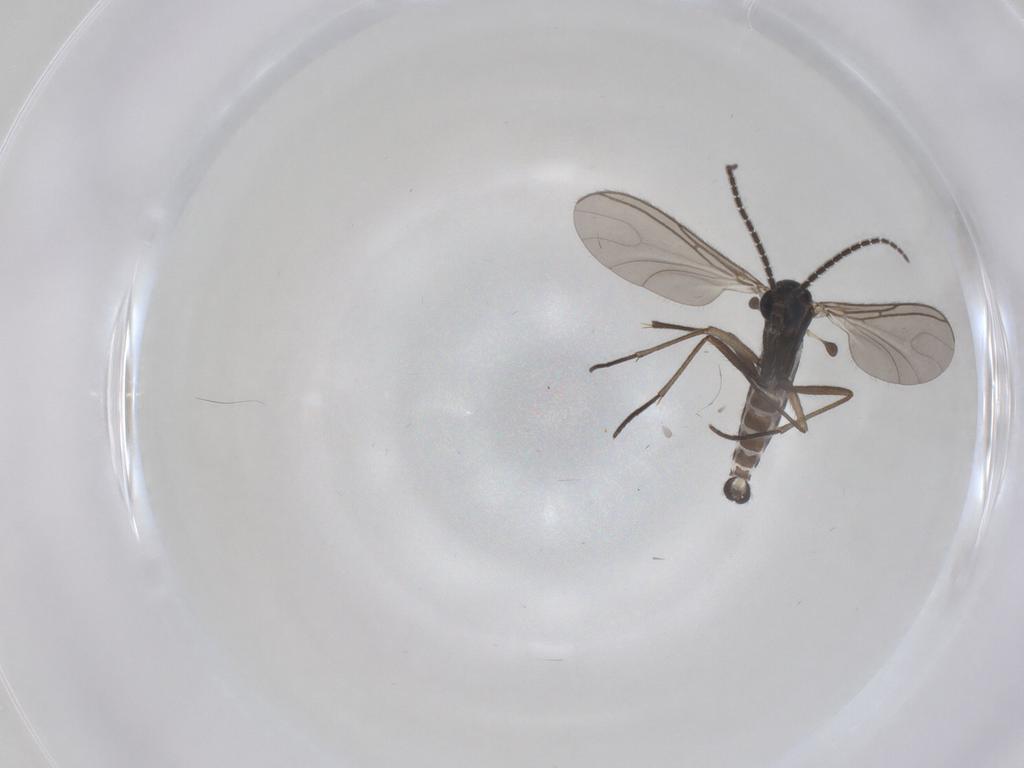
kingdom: Animalia
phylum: Arthropoda
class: Insecta
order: Diptera
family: Sciaridae
